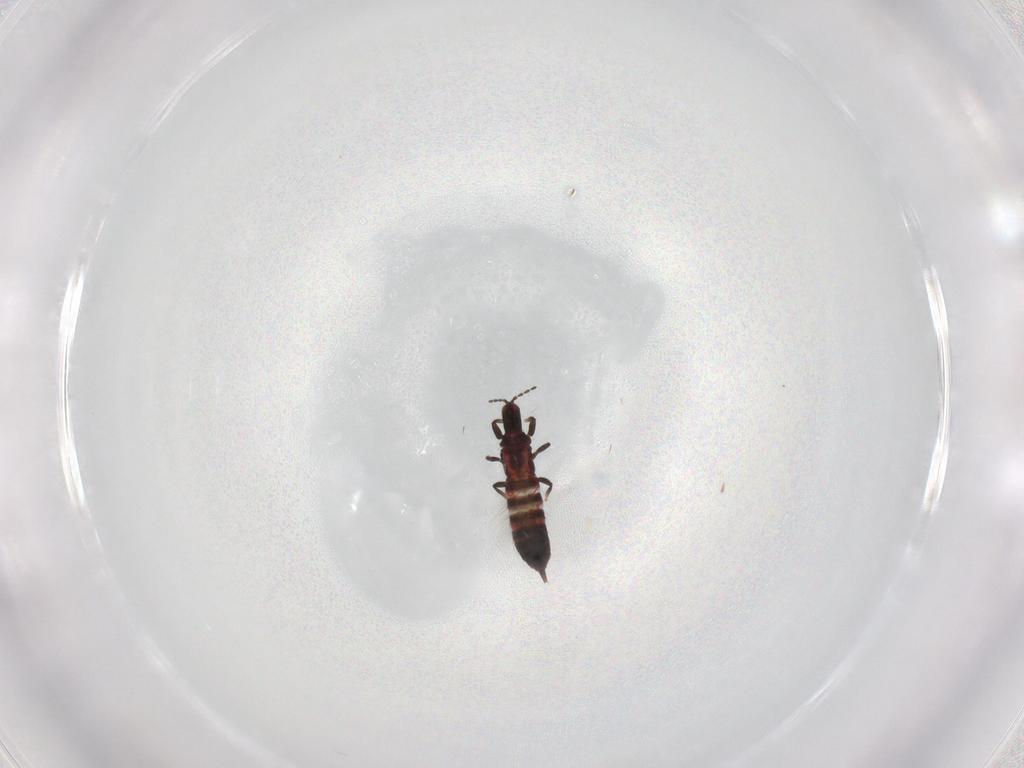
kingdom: Animalia
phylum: Arthropoda
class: Insecta
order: Thysanoptera
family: Phlaeothripidae
